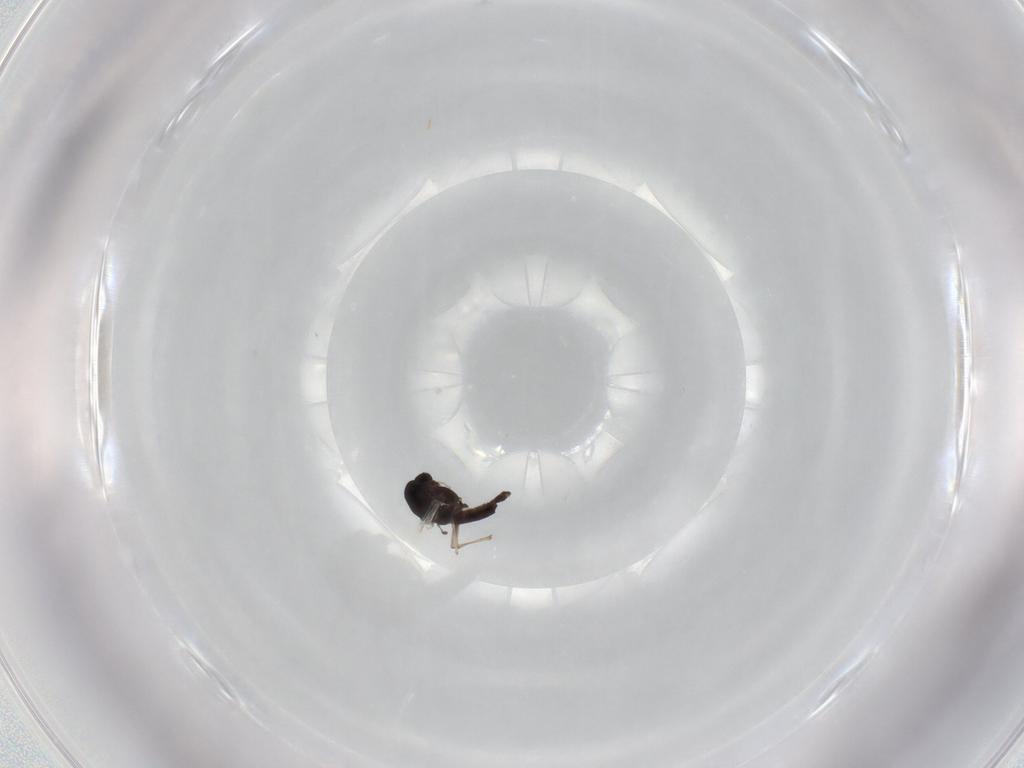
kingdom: Animalia
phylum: Arthropoda
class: Insecta
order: Diptera
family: Chironomidae
